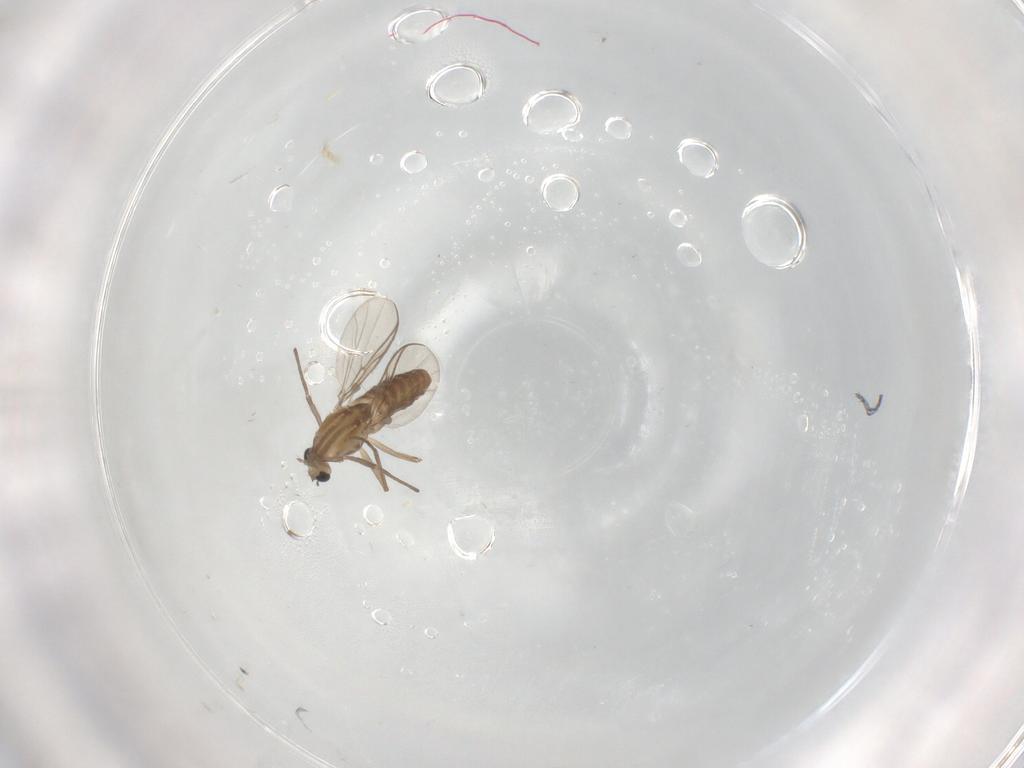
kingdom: Animalia
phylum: Arthropoda
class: Insecta
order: Diptera
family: Chironomidae
